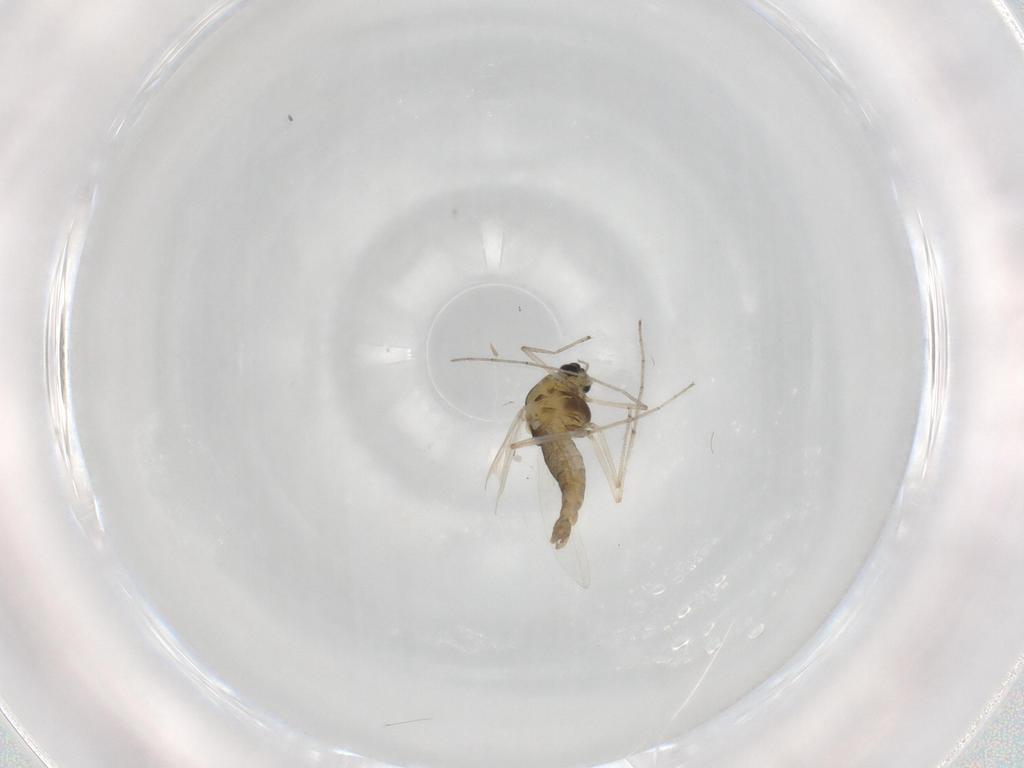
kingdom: Animalia
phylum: Arthropoda
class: Insecta
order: Diptera
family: Chironomidae
